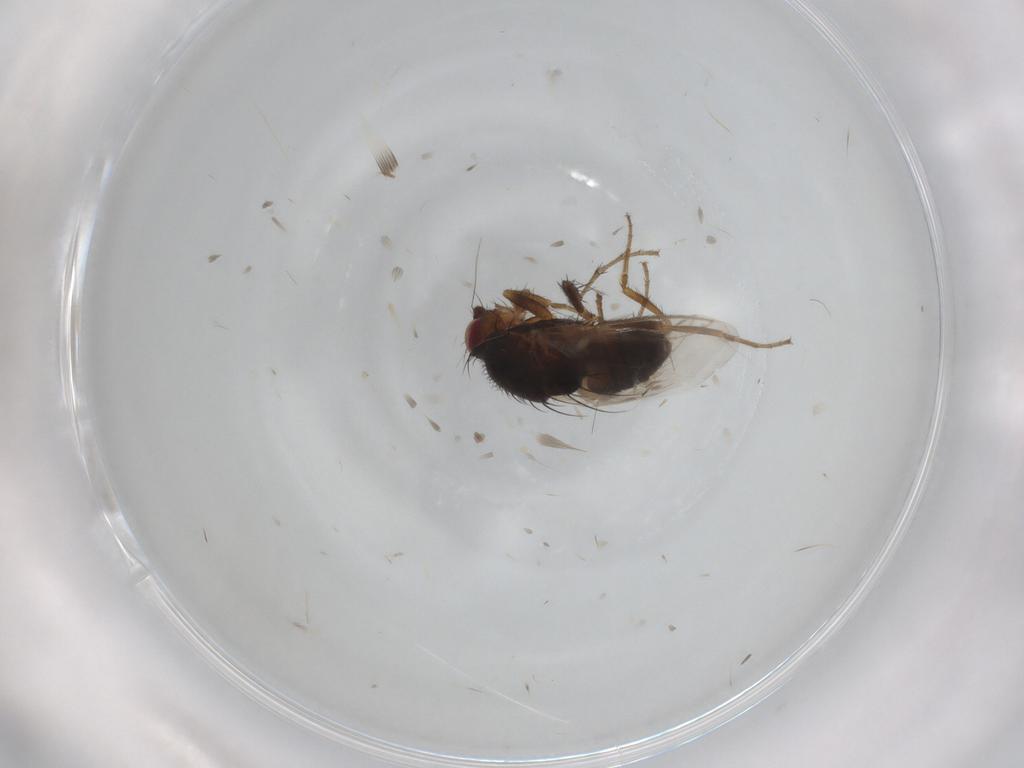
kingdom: Animalia
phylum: Arthropoda
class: Insecta
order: Diptera
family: Sphaeroceridae
